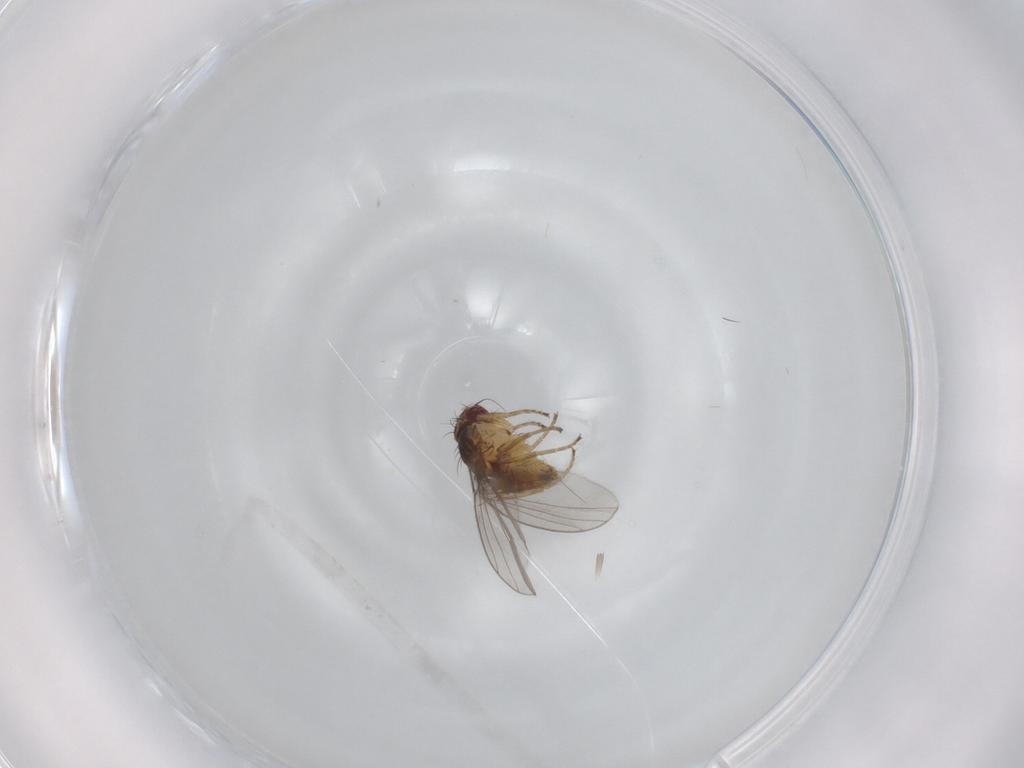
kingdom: Animalia
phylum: Arthropoda
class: Insecta
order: Diptera
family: Agromyzidae
